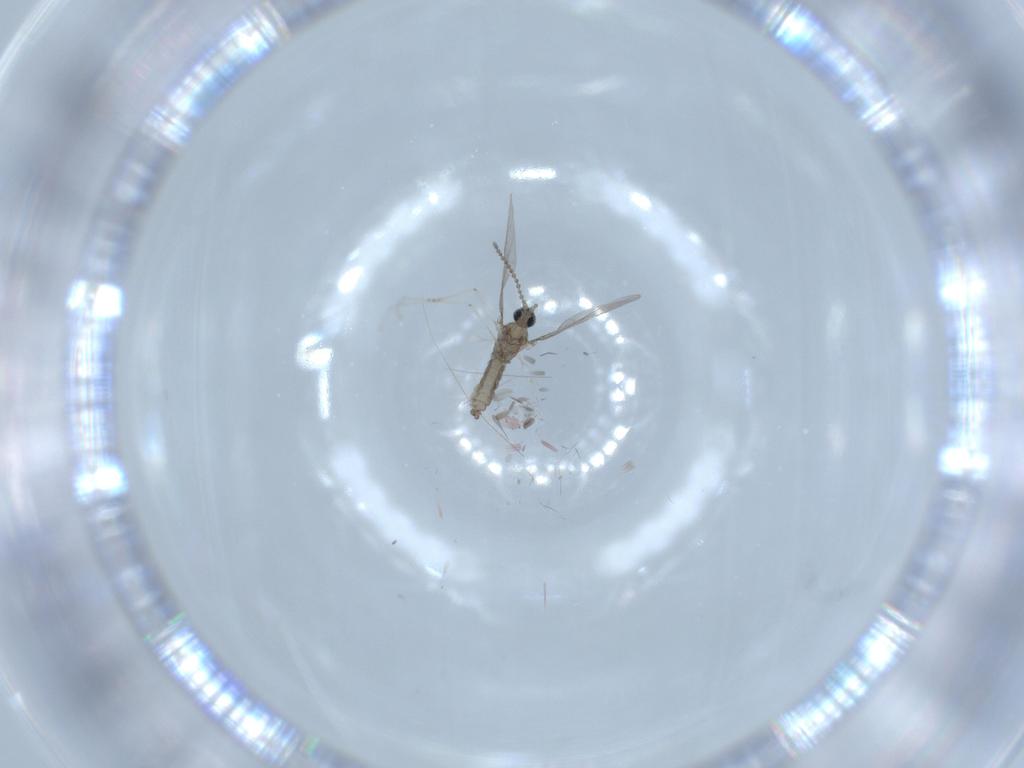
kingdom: Animalia
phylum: Arthropoda
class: Insecta
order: Diptera
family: Cecidomyiidae
